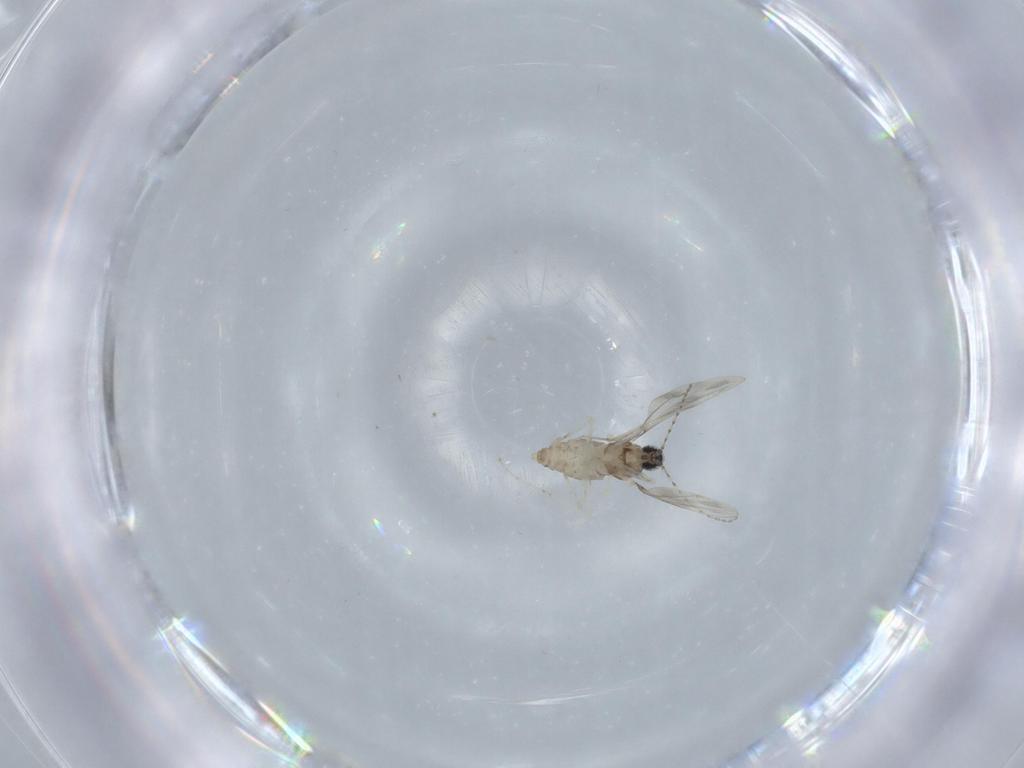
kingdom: Animalia
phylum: Arthropoda
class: Insecta
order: Diptera
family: Cecidomyiidae
